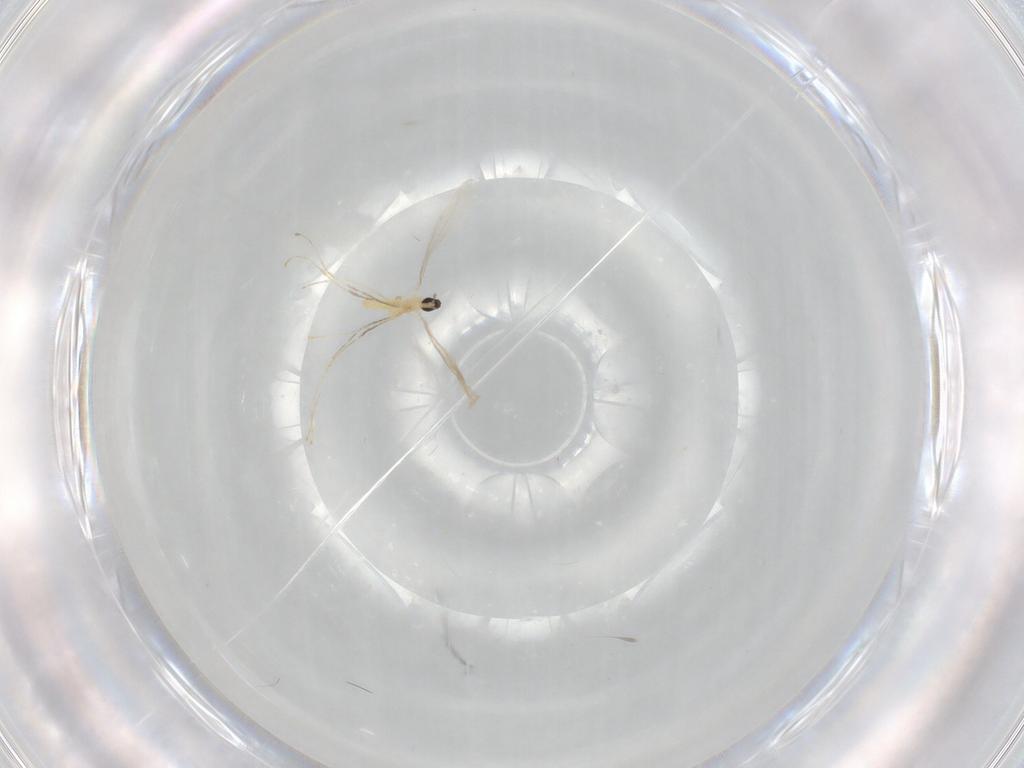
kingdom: Animalia
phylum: Arthropoda
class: Insecta
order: Diptera
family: Cecidomyiidae
